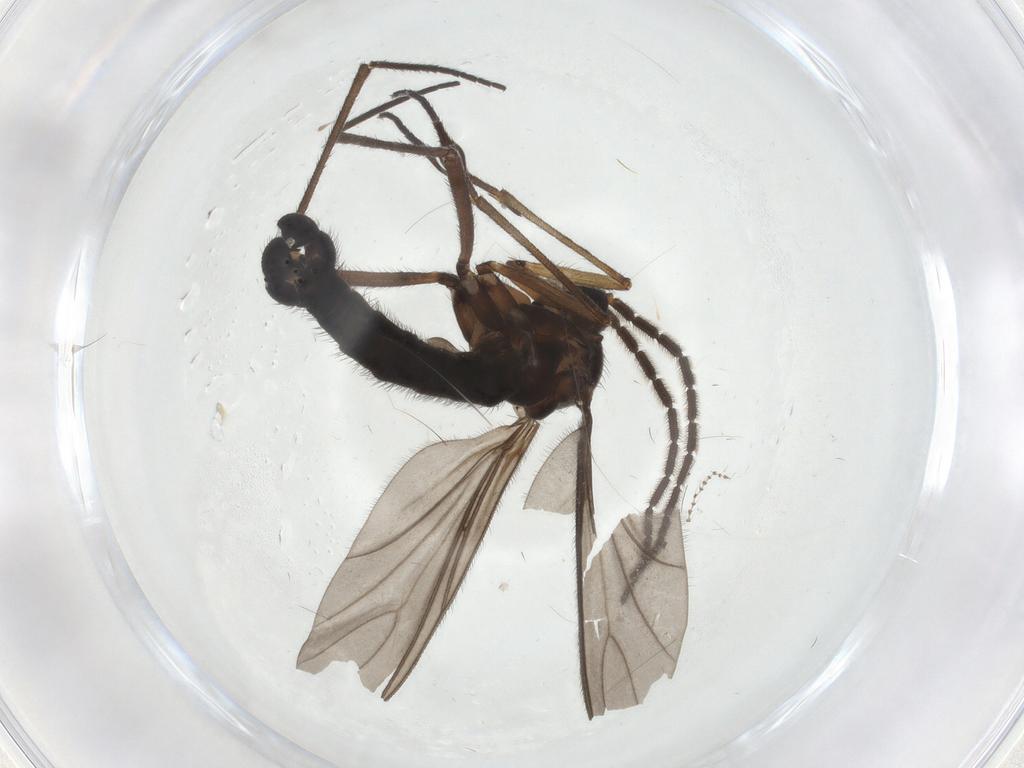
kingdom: Animalia
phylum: Arthropoda
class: Insecta
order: Diptera
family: Sciaridae
